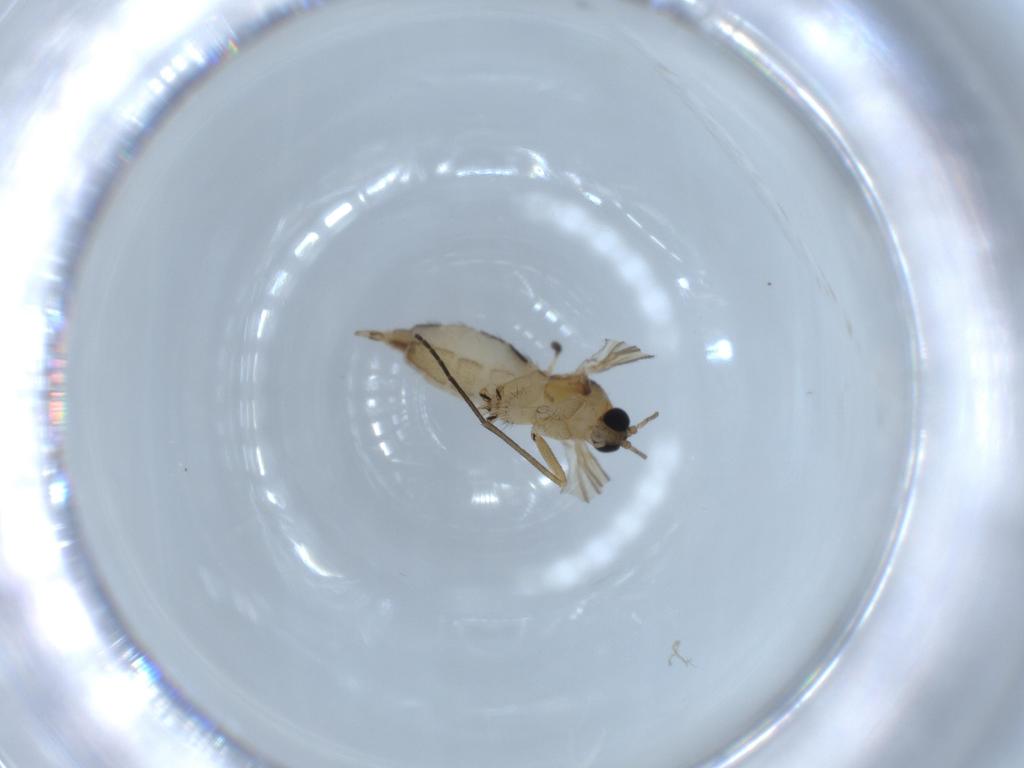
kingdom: Animalia
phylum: Arthropoda
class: Insecta
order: Diptera
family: Sciaridae
